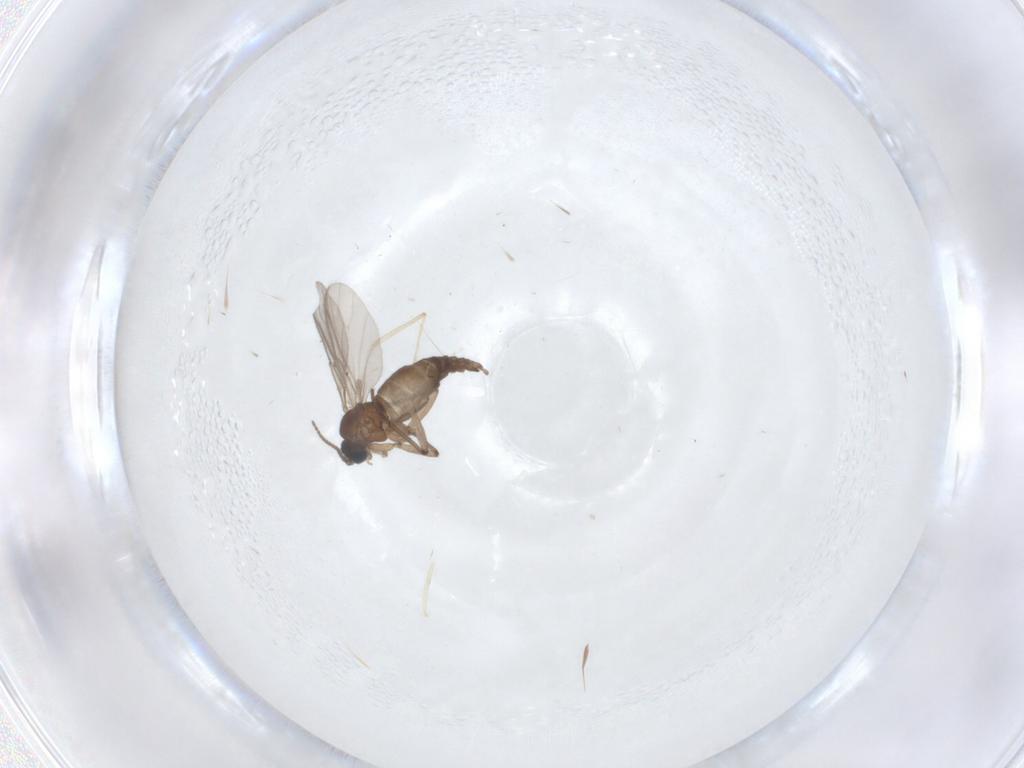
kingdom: Animalia
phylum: Arthropoda
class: Insecta
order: Diptera
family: Sciaridae
